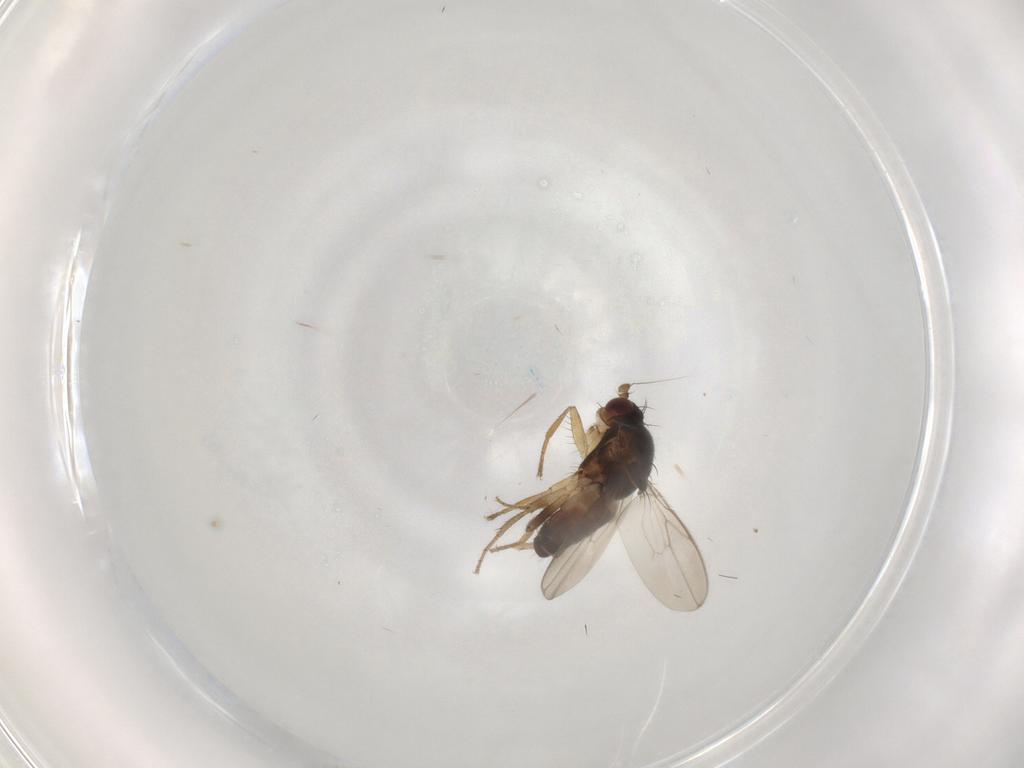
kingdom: Animalia
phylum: Arthropoda
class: Insecta
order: Diptera
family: Sphaeroceridae
